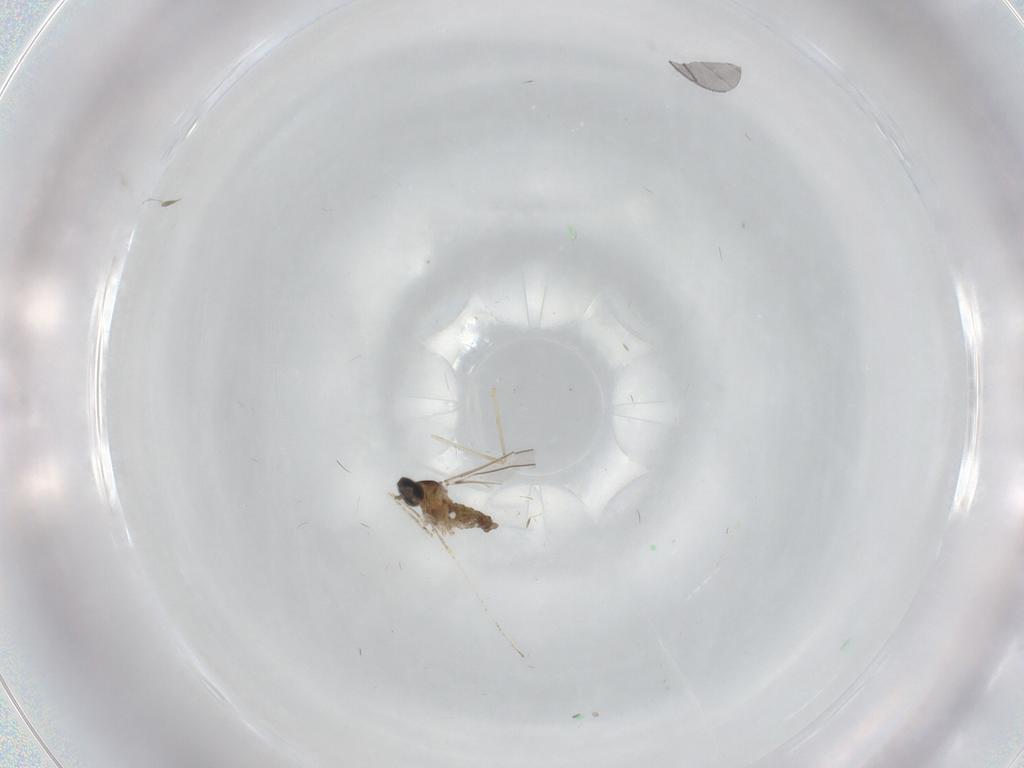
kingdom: Animalia
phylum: Arthropoda
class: Insecta
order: Diptera
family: Cecidomyiidae
